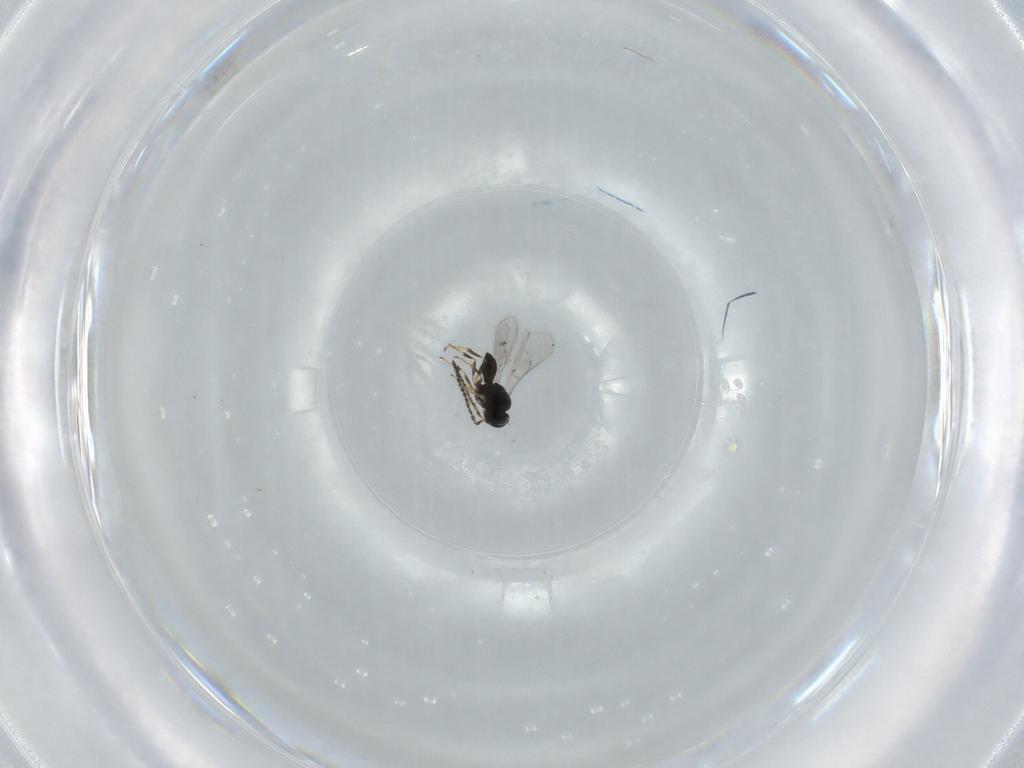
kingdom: Animalia
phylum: Arthropoda
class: Insecta
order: Hymenoptera
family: Scelionidae
